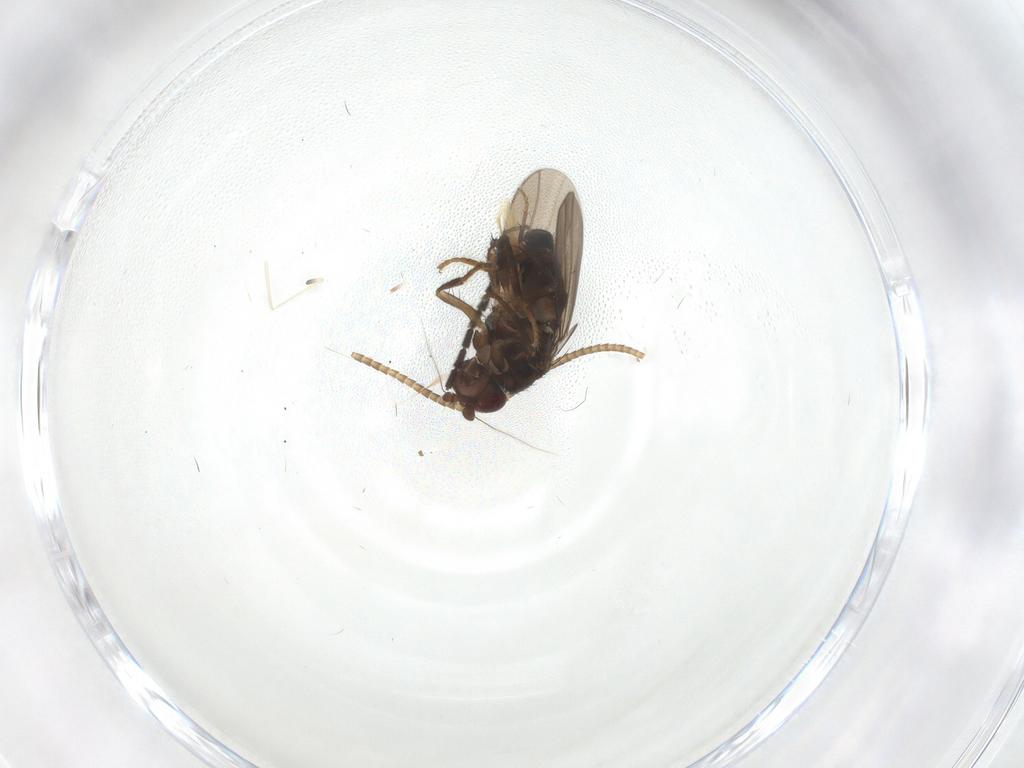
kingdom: Animalia
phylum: Arthropoda
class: Insecta
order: Diptera
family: Sciaridae
